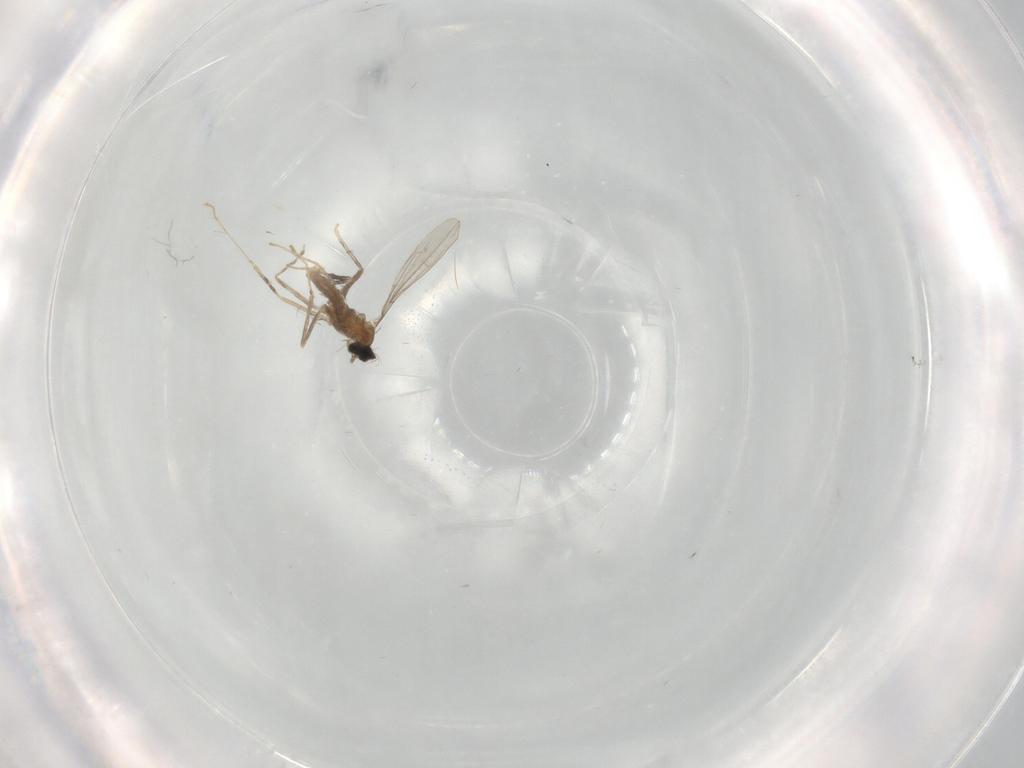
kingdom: Animalia
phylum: Arthropoda
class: Insecta
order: Diptera
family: Cecidomyiidae
